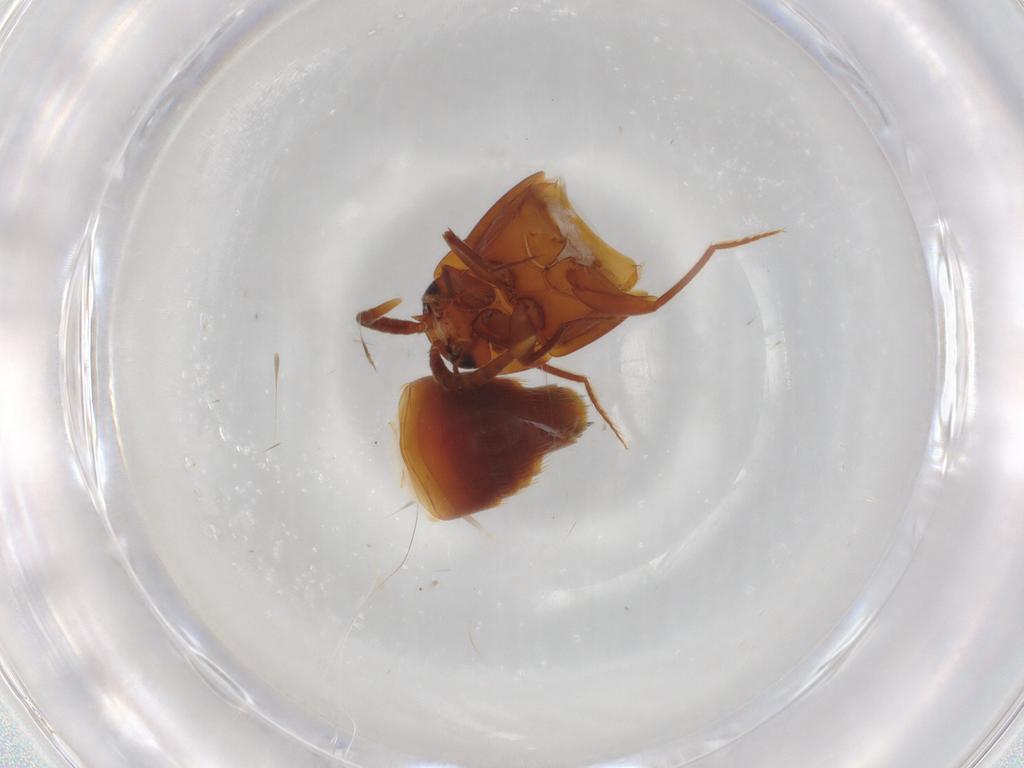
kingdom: Animalia
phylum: Arthropoda
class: Insecta
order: Coleoptera
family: Staphylinidae
